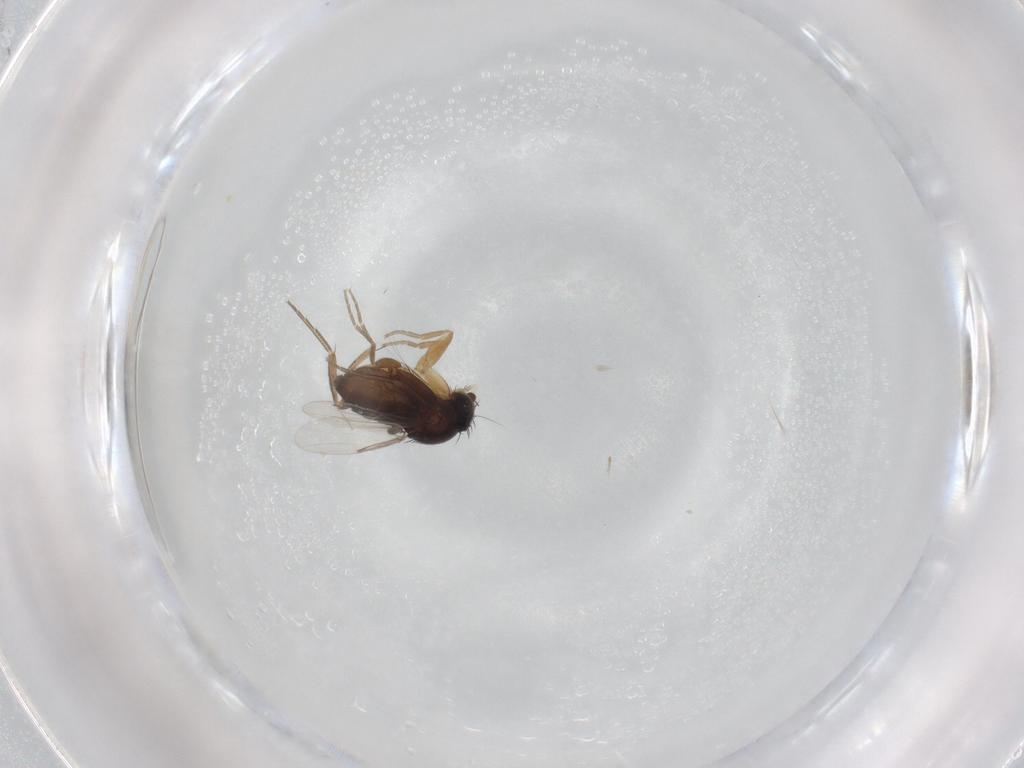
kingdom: Animalia
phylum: Arthropoda
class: Insecta
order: Diptera
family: Phoridae
